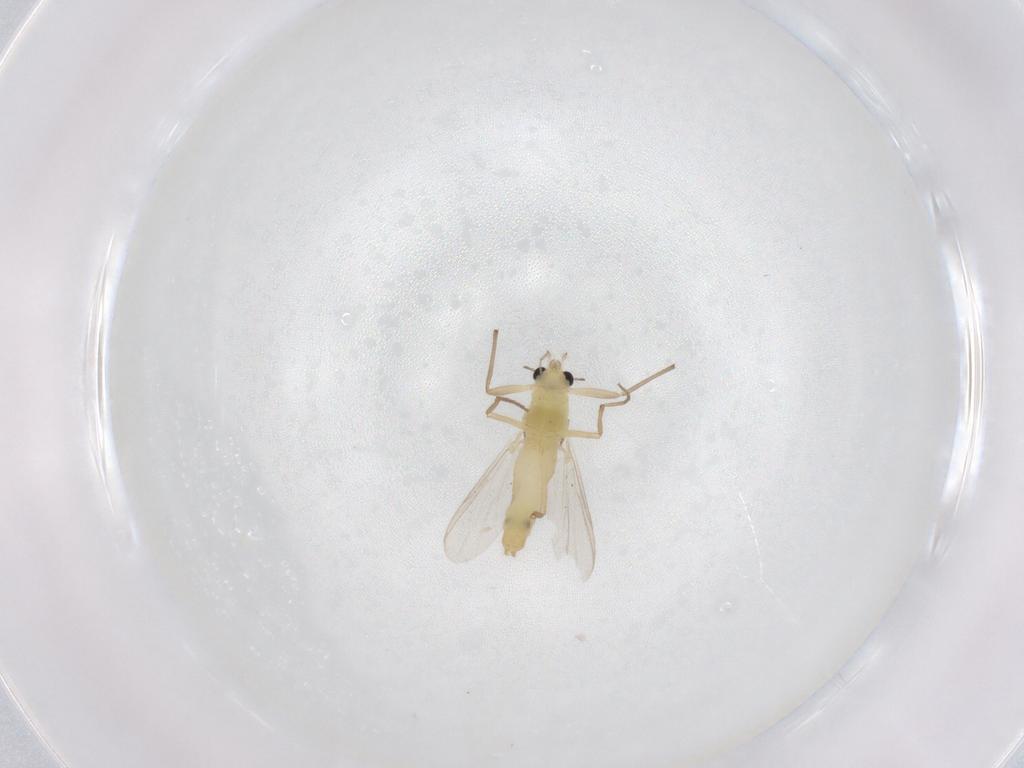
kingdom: Animalia
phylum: Arthropoda
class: Insecta
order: Diptera
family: Chironomidae
